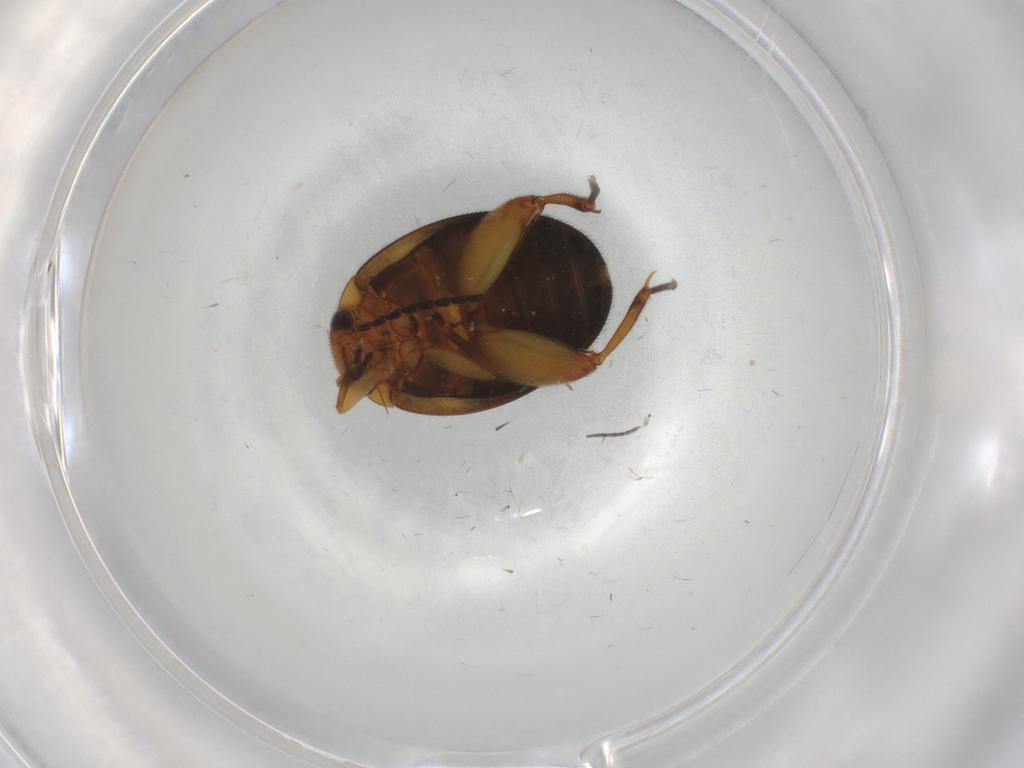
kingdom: Animalia
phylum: Arthropoda
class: Insecta
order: Coleoptera
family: Scirtidae
